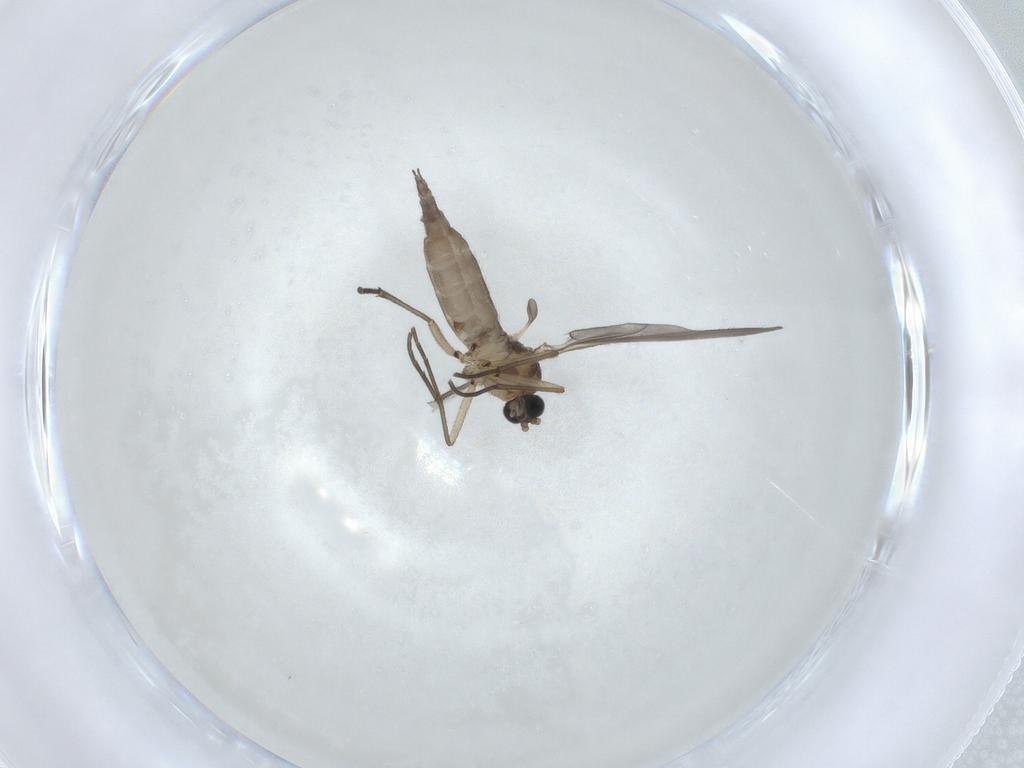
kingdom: Animalia
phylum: Arthropoda
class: Insecta
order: Diptera
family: Sciaridae
